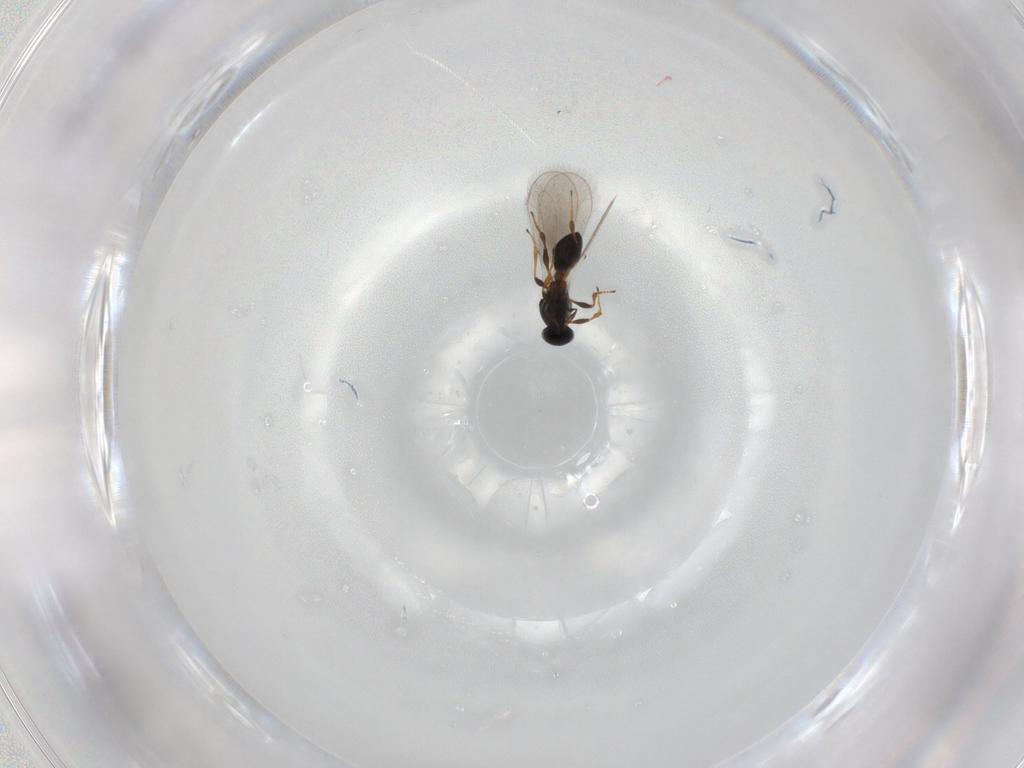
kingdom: Animalia
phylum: Arthropoda
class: Insecta
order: Hymenoptera
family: Platygastridae
